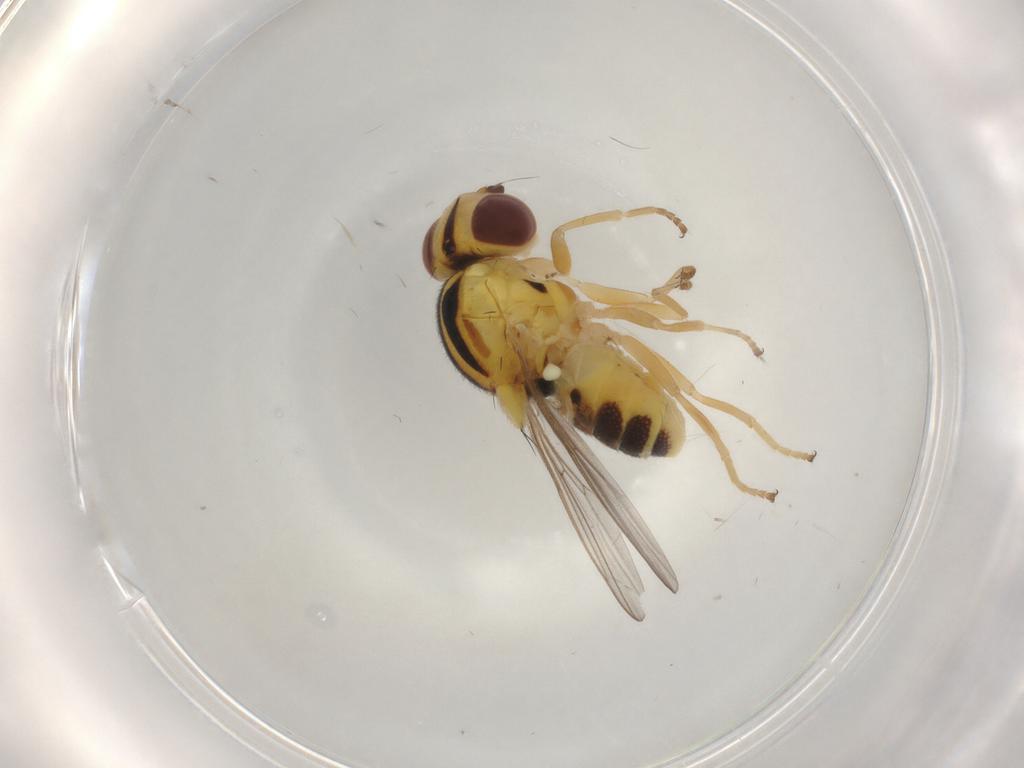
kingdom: Animalia
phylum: Arthropoda
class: Insecta
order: Diptera
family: Chloropidae
